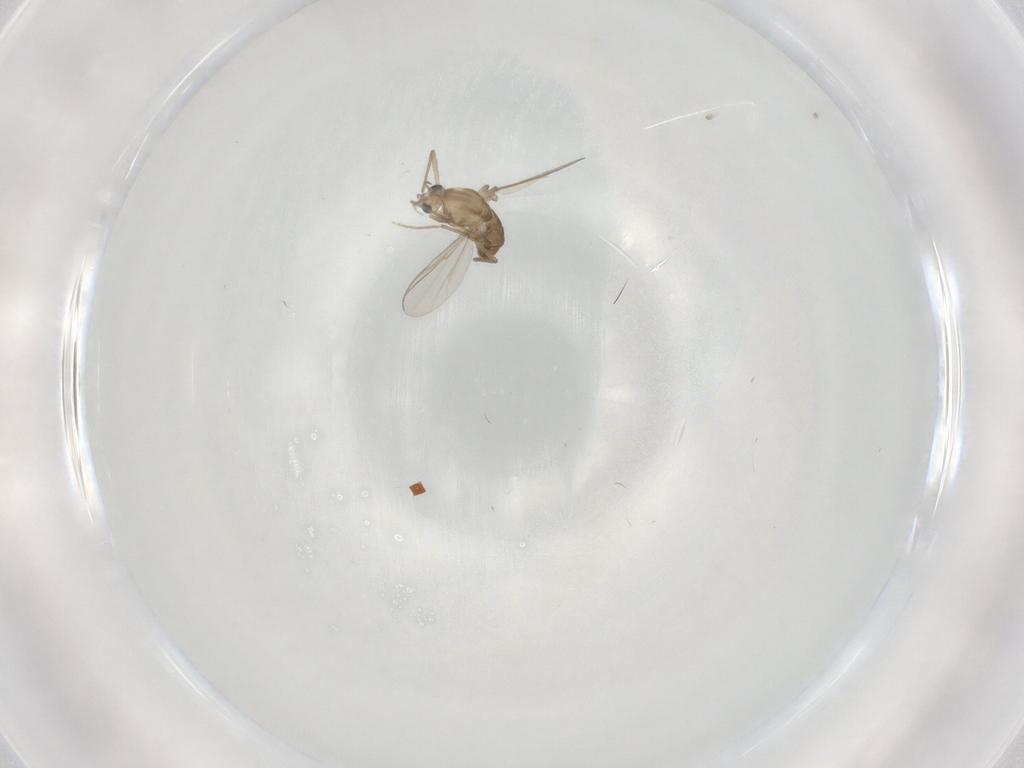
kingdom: Animalia
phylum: Arthropoda
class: Insecta
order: Diptera
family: Chironomidae
